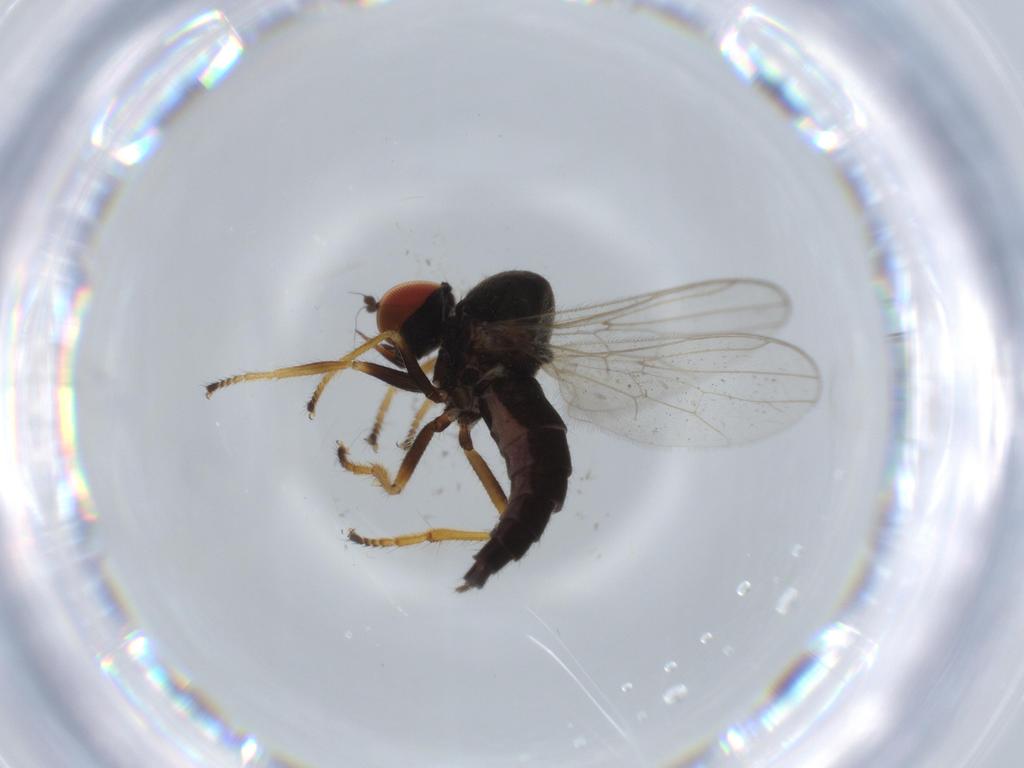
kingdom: Animalia
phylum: Arthropoda
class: Insecta
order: Diptera
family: Cecidomyiidae
